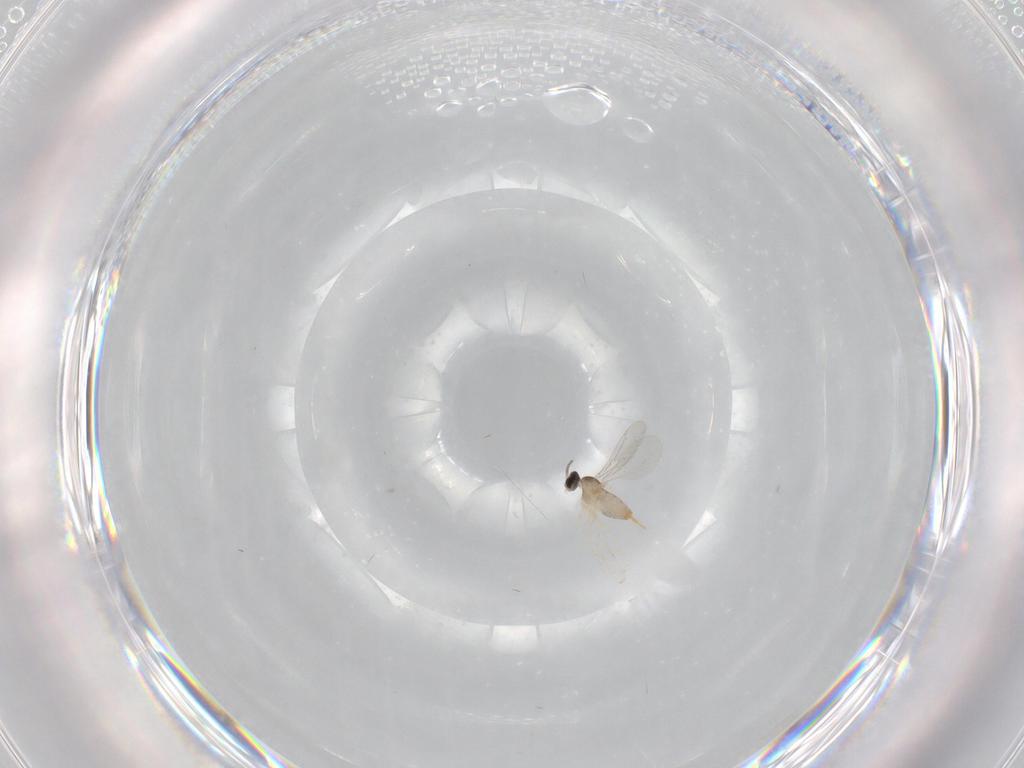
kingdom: Animalia
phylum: Arthropoda
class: Insecta
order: Diptera
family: Cecidomyiidae
